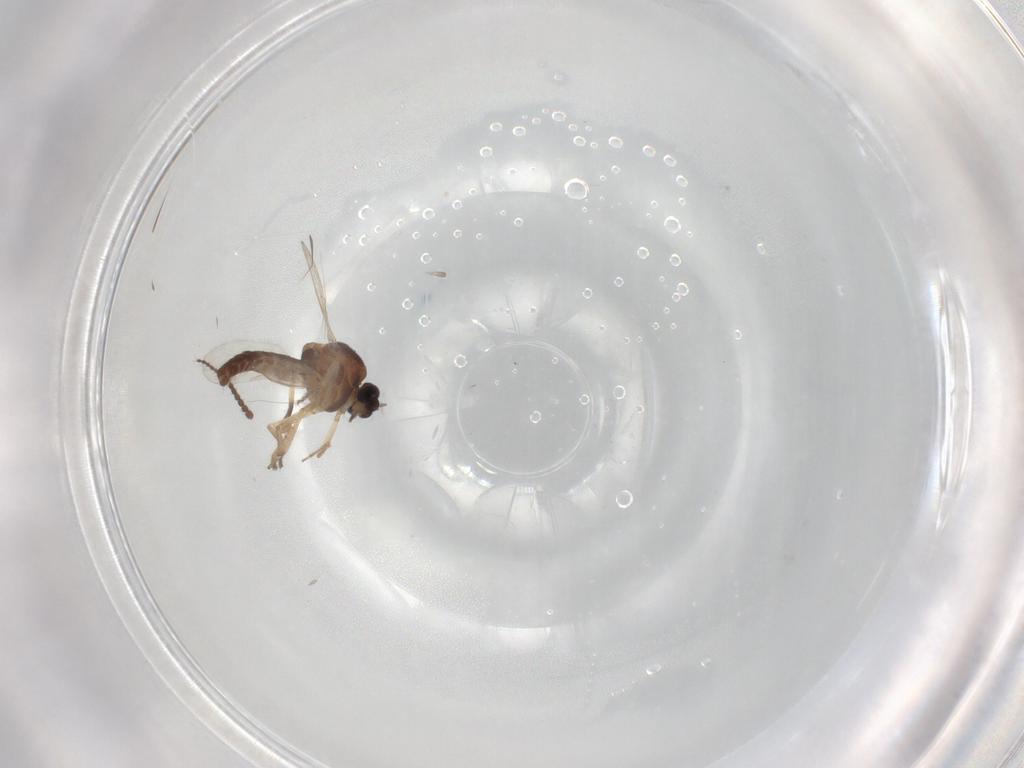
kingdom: Animalia
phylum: Arthropoda
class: Insecta
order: Diptera
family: Ceratopogonidae
